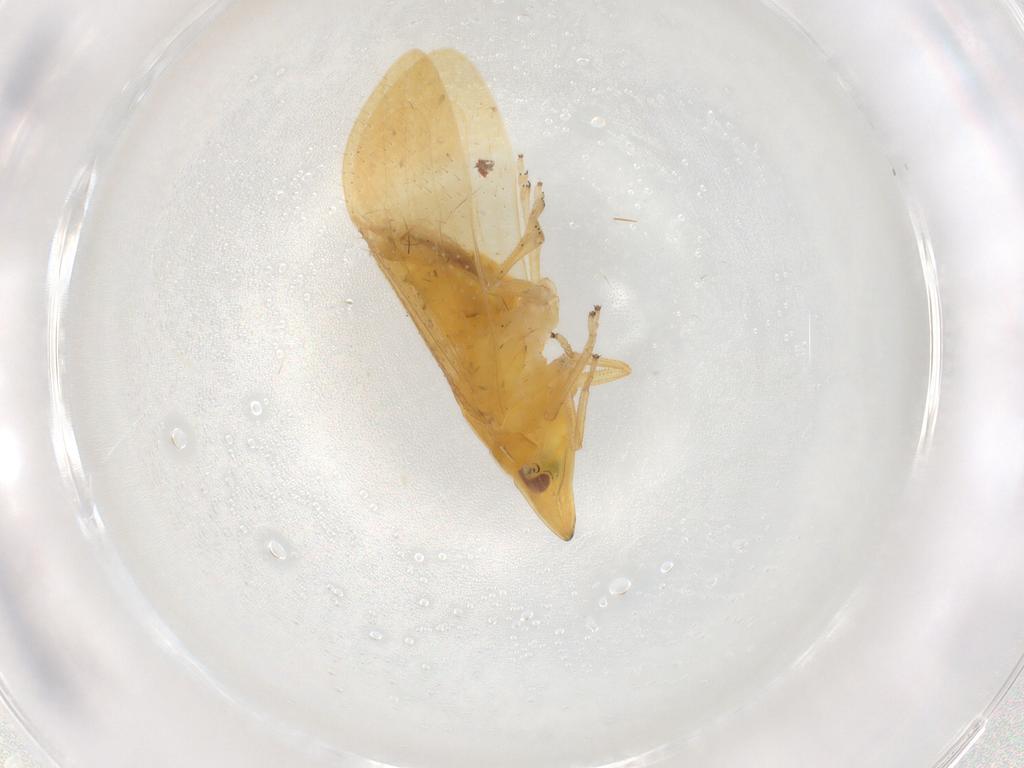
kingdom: Animalia
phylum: Arthropoda
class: Insecta
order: Hemiptera
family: Delphacidae
